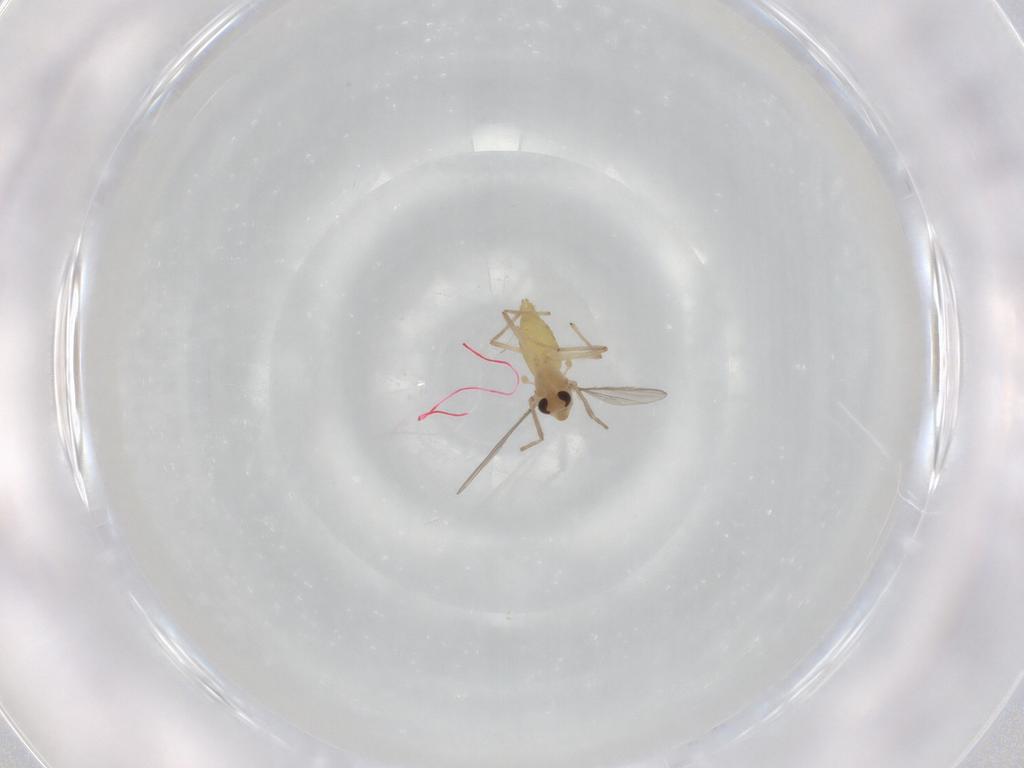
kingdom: Animalia
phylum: Arthropoda
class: Insecta
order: Diptera
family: Chironomidae
